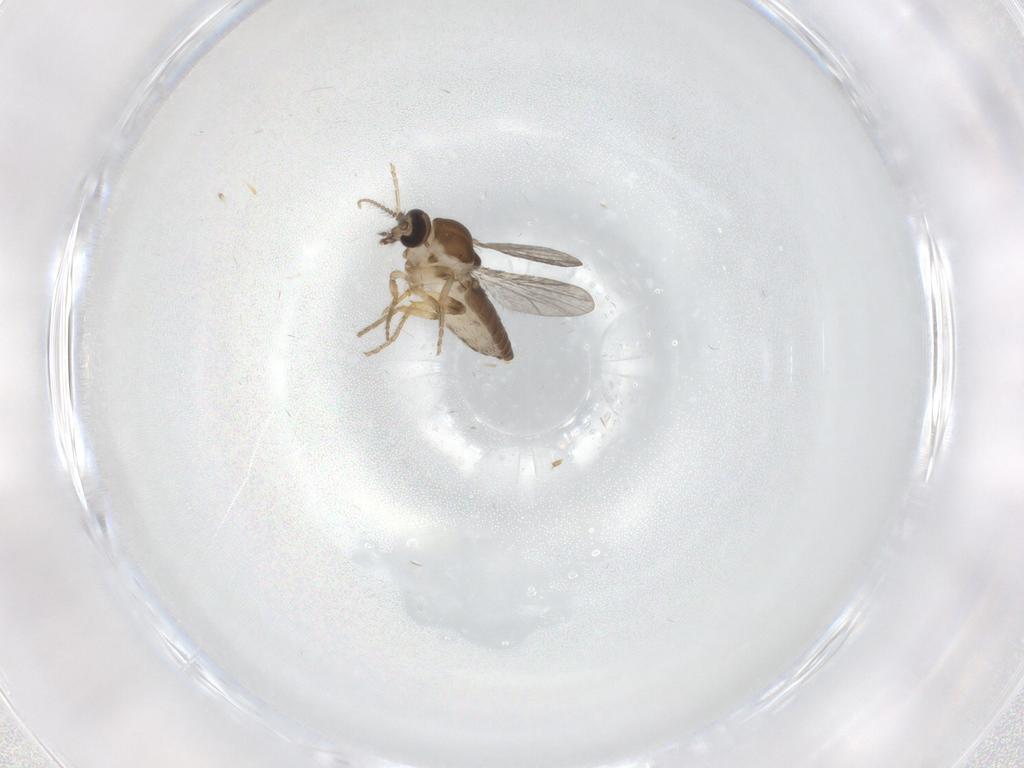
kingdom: Animalia
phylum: Arthropoda
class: Insecta
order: Diptera
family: Ceratopogonidae
